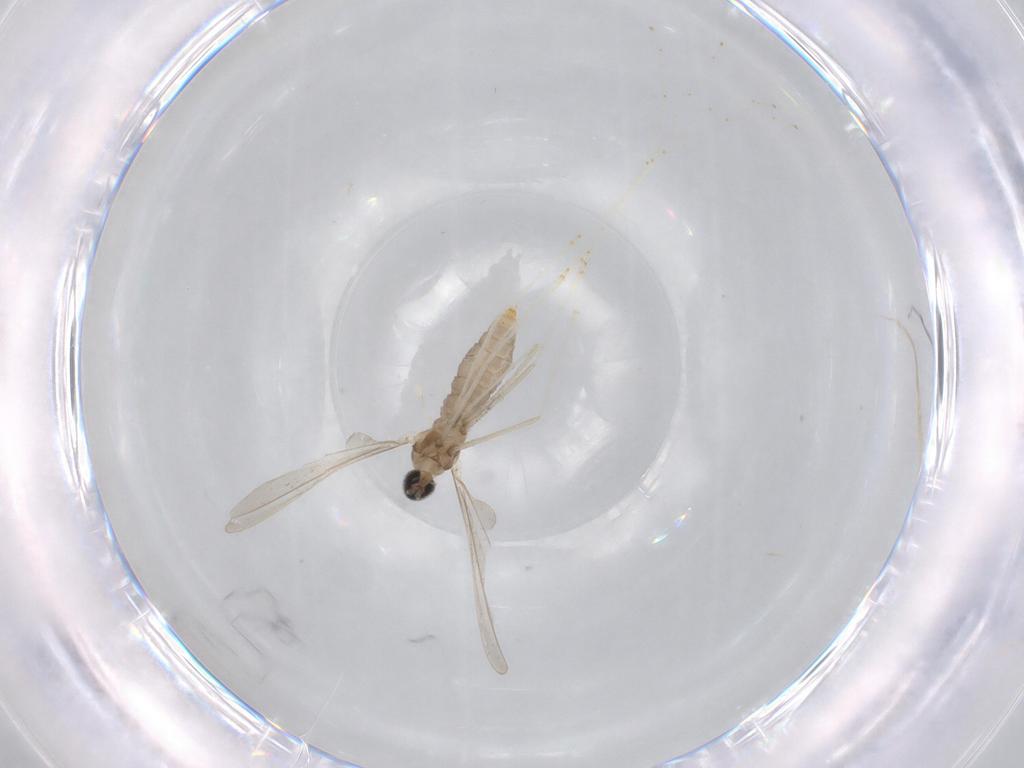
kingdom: Animalia
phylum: Arthropoda
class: Insecta
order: Diptera
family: Cecidomyiidae
